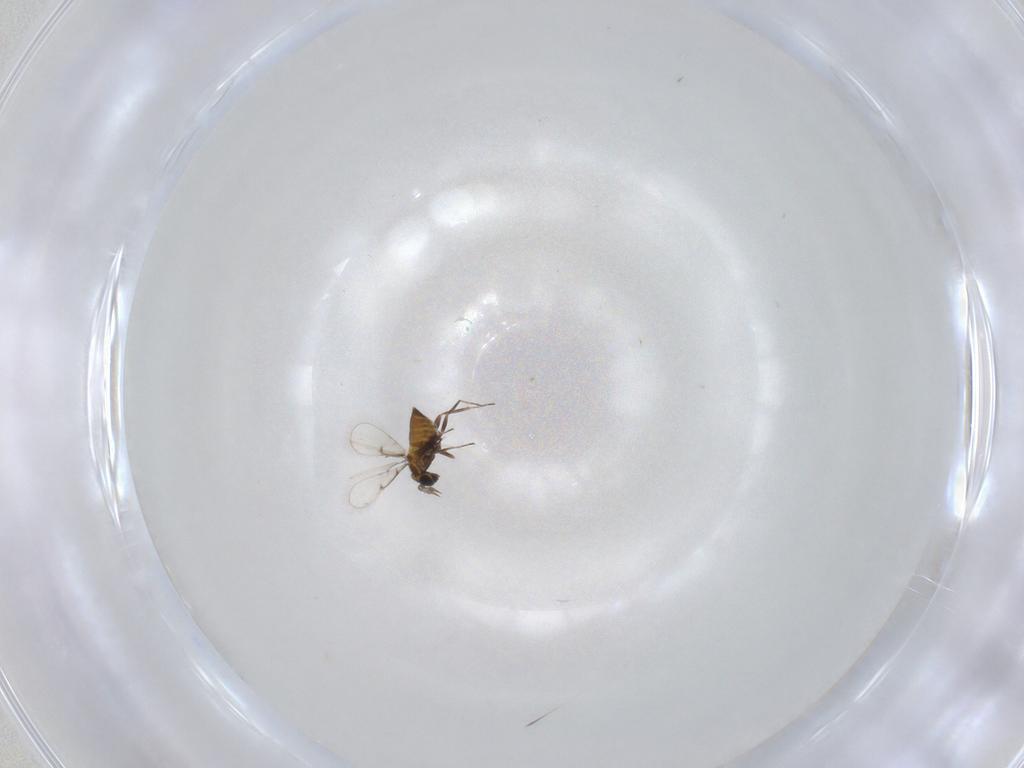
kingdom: Animalia
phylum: Arthropoda
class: Insecta
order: Hymenoptera
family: Trichogrammatidae
